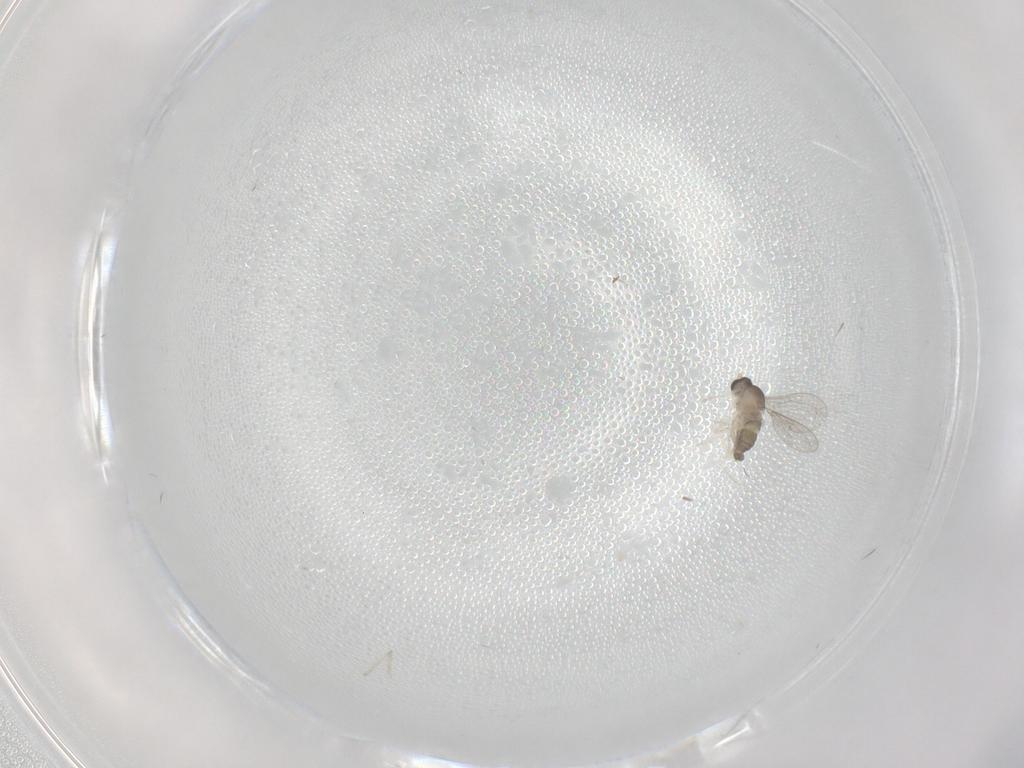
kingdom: Animalia
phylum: Arthropoda
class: Insecta
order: Diptera
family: Cecidomyiidae
